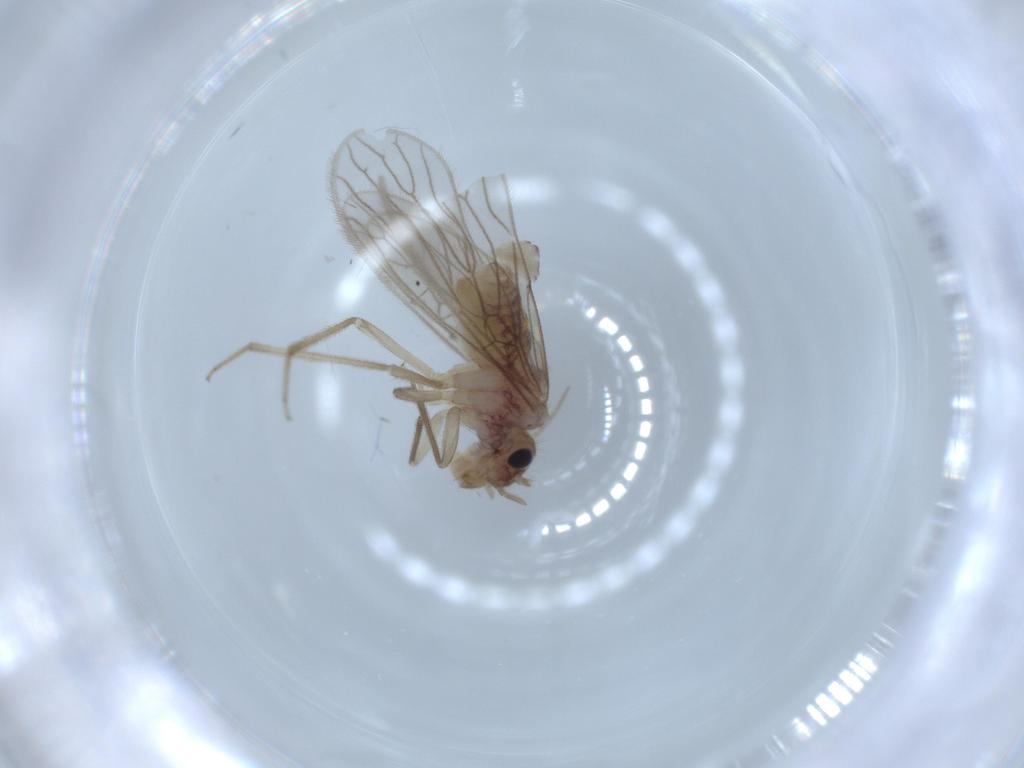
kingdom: Animalia
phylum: Arthropoda
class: Insecta
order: Psocodea
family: Cladiopsocidae
